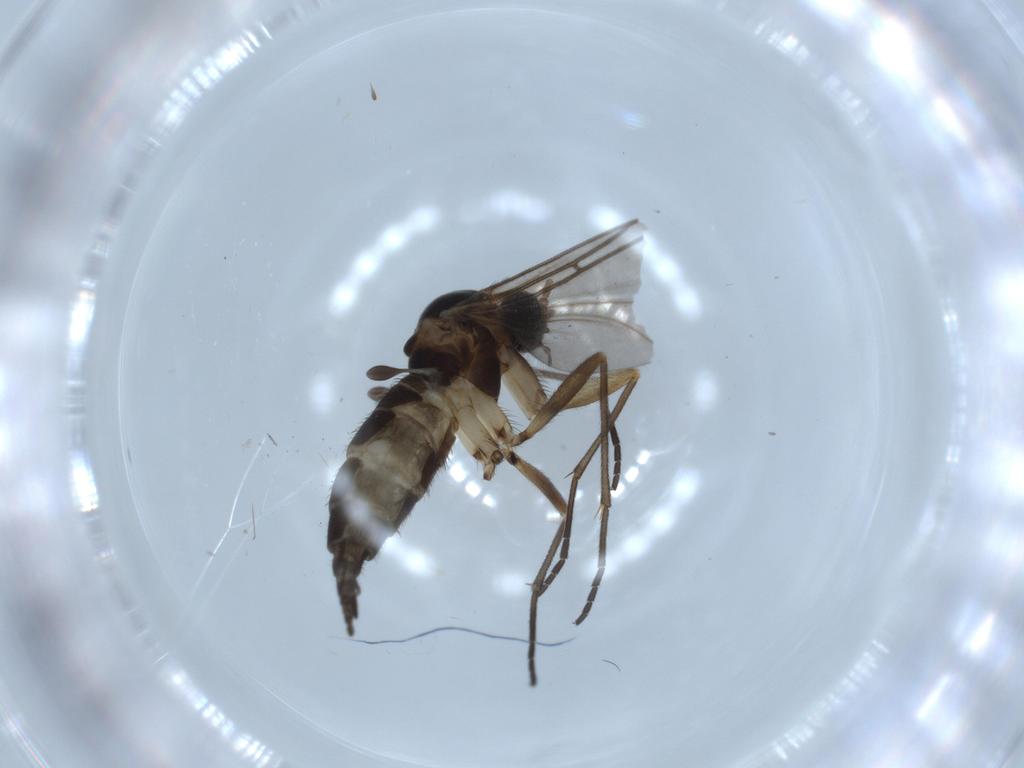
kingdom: Animalia
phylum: Arthropoda
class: Insecta
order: Diptera
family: Sciaridae
